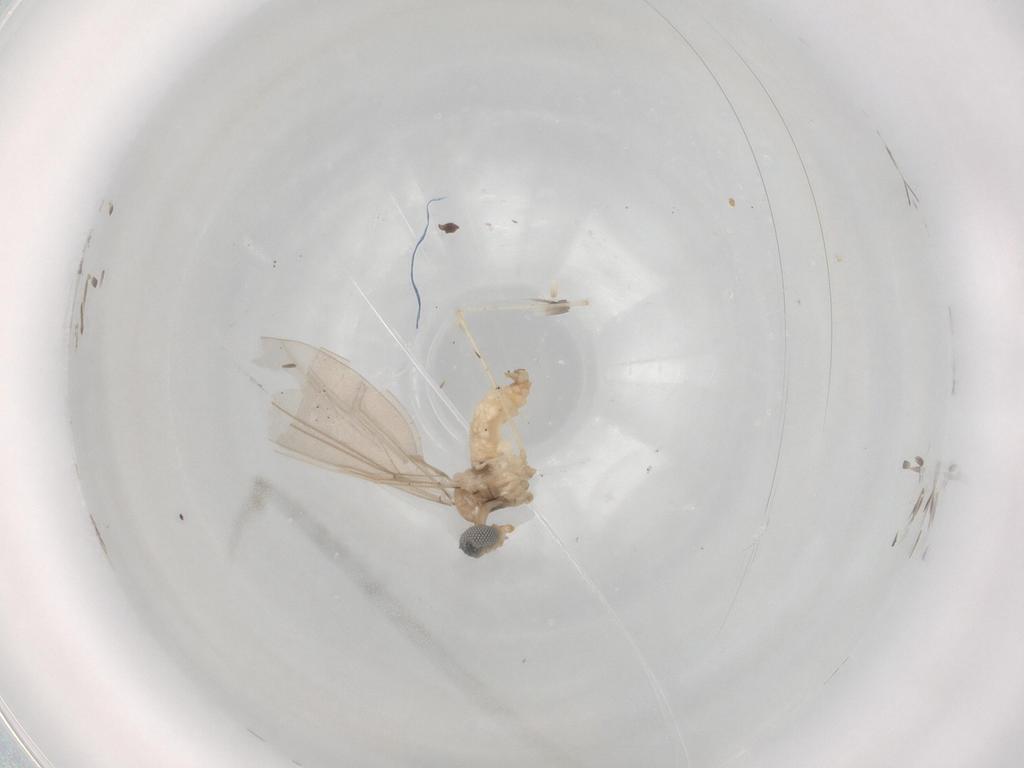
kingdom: Animalia
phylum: Arthropoda
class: Insecta
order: Diptera
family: Cecidomyiidae
